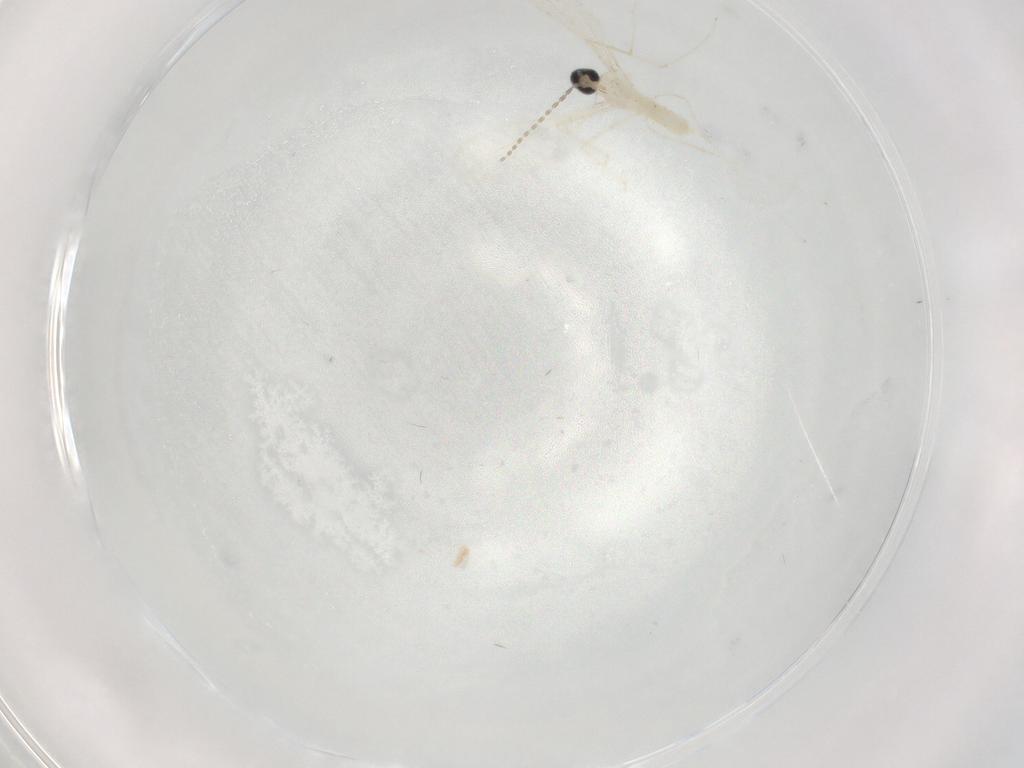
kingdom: Animalia
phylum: Arthropoda
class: Insecta
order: Diptera
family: Cecidomyiidae
